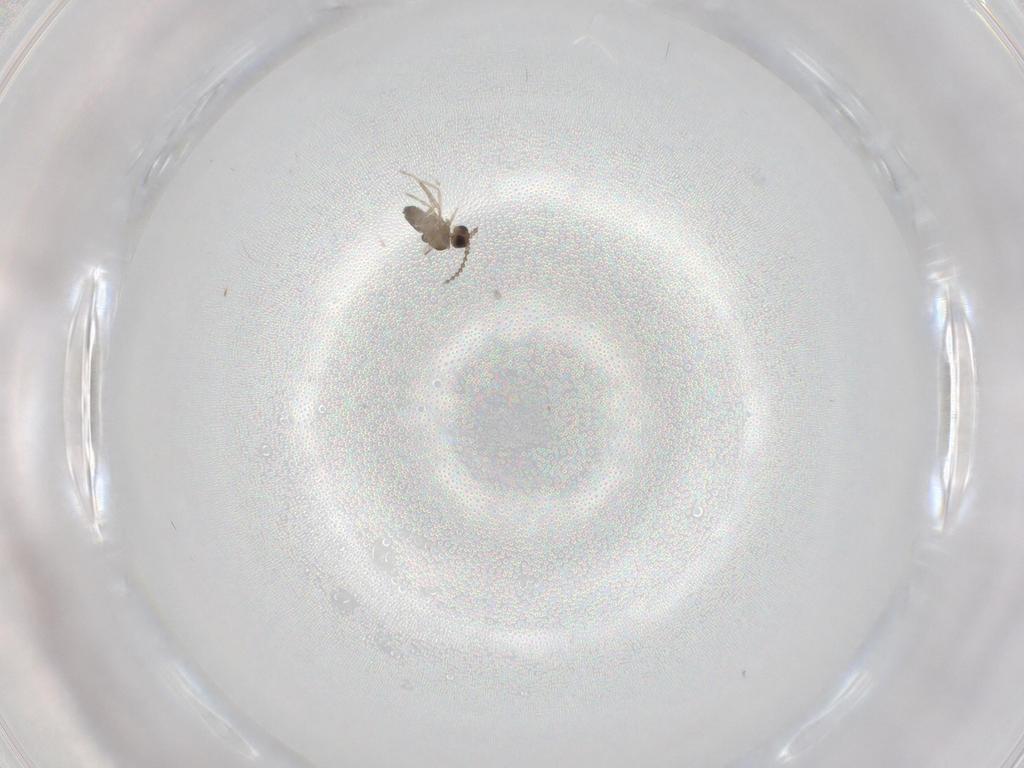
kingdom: Animalia
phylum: Arthropoda
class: Insecta
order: Diptera
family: Cecidomyiidae
